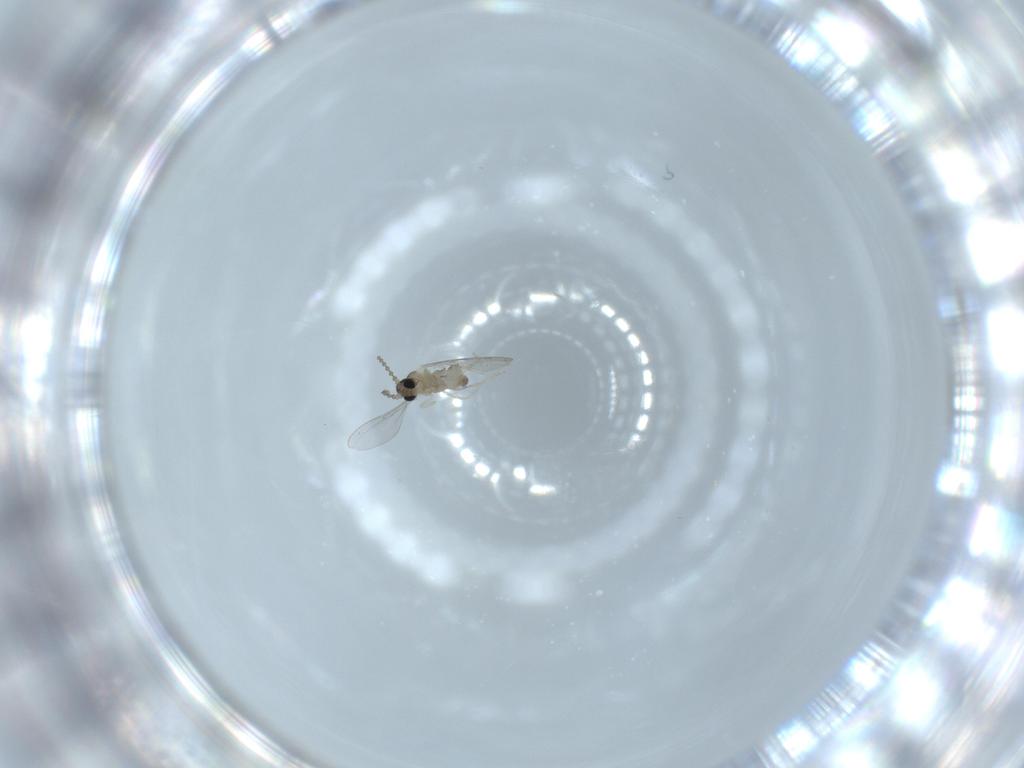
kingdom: Animalia
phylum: Arthropoda
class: Insecta
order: Diptera
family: Cecidomyiidae
